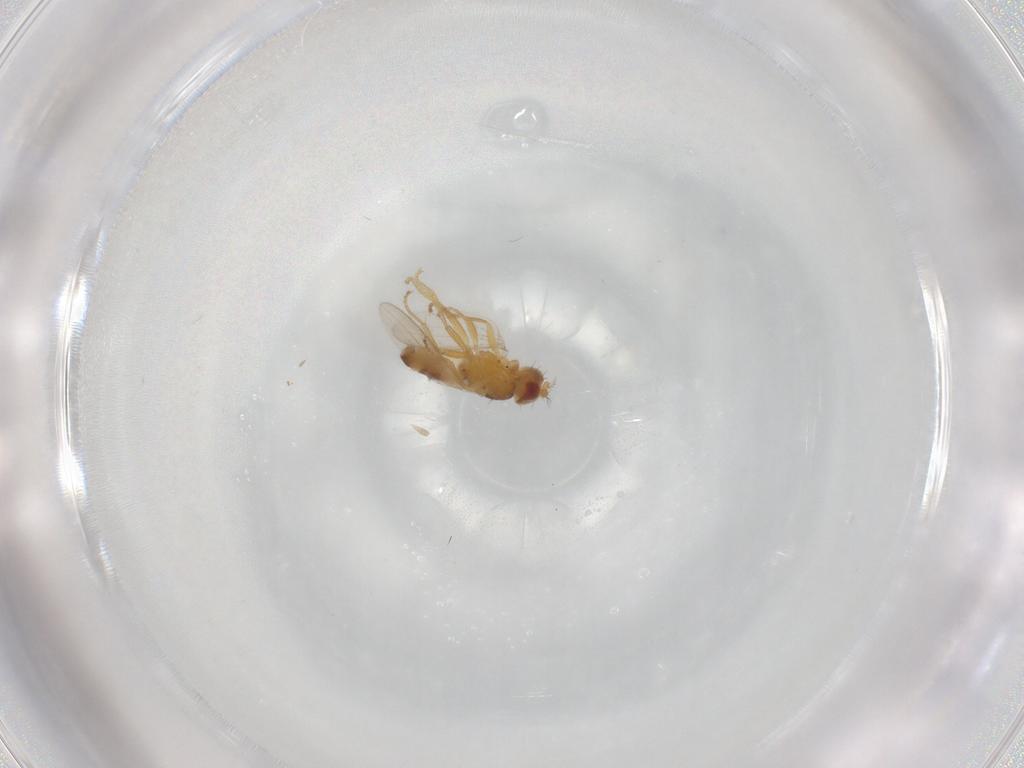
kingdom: Animalia
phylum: Arthropoda
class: Insecta
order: Diptera
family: Periscelididae
